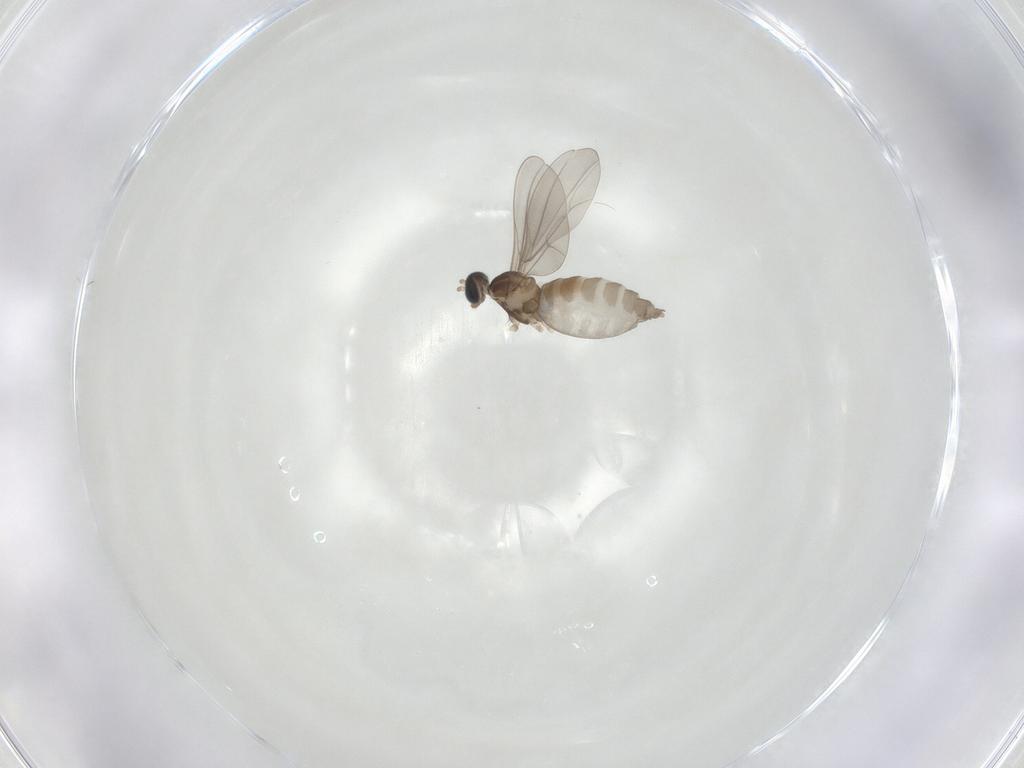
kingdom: Animalia
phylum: Arthropoda
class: Insecta
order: Diptera
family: Cecidomyiidae
